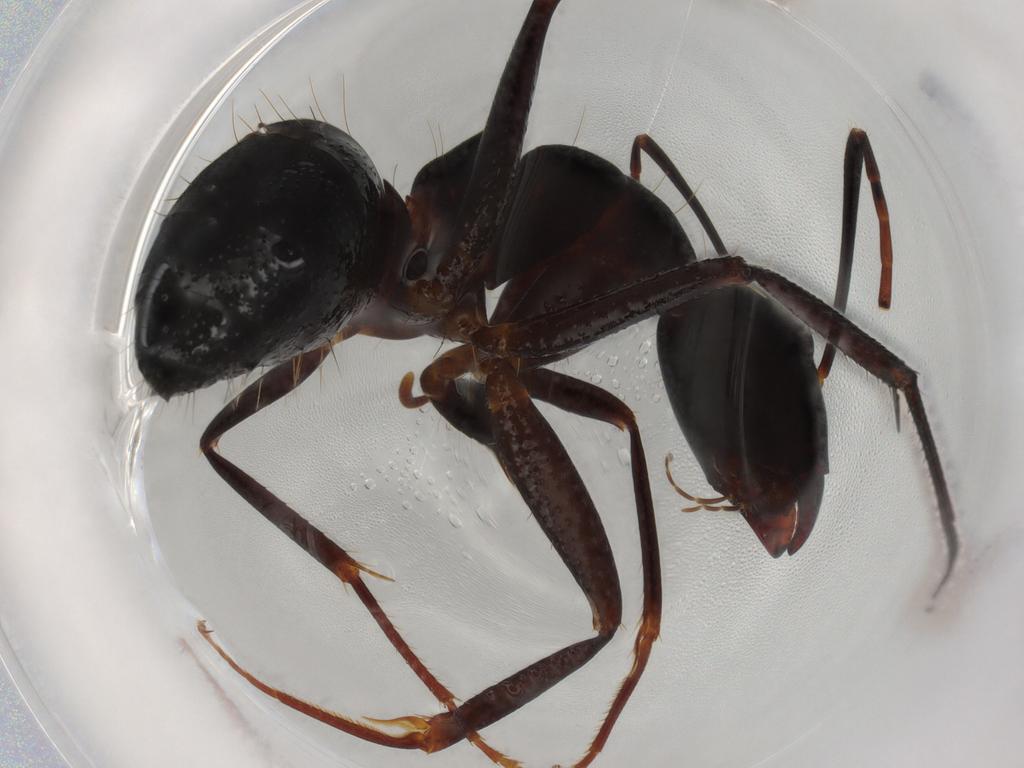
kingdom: Animalia
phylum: Arthropoda
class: Insecta
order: Hymenoptera
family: Formicidae
